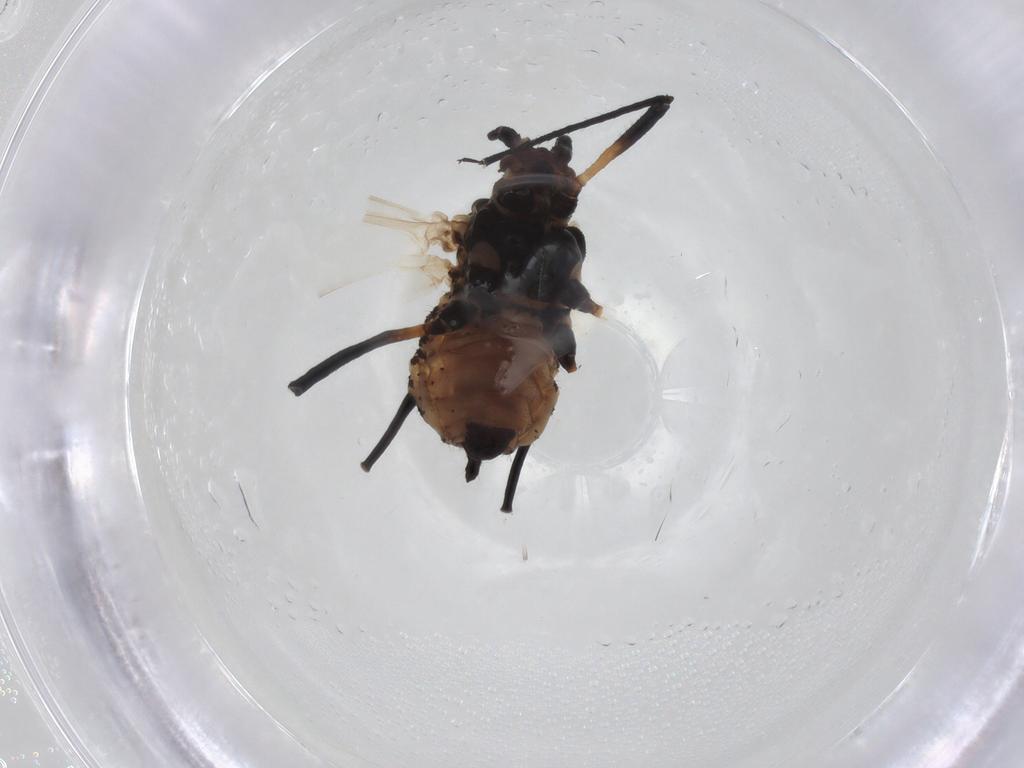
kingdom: Animalia
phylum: Arthropoda
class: Insecta
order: Hemiptera
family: Aphididae
